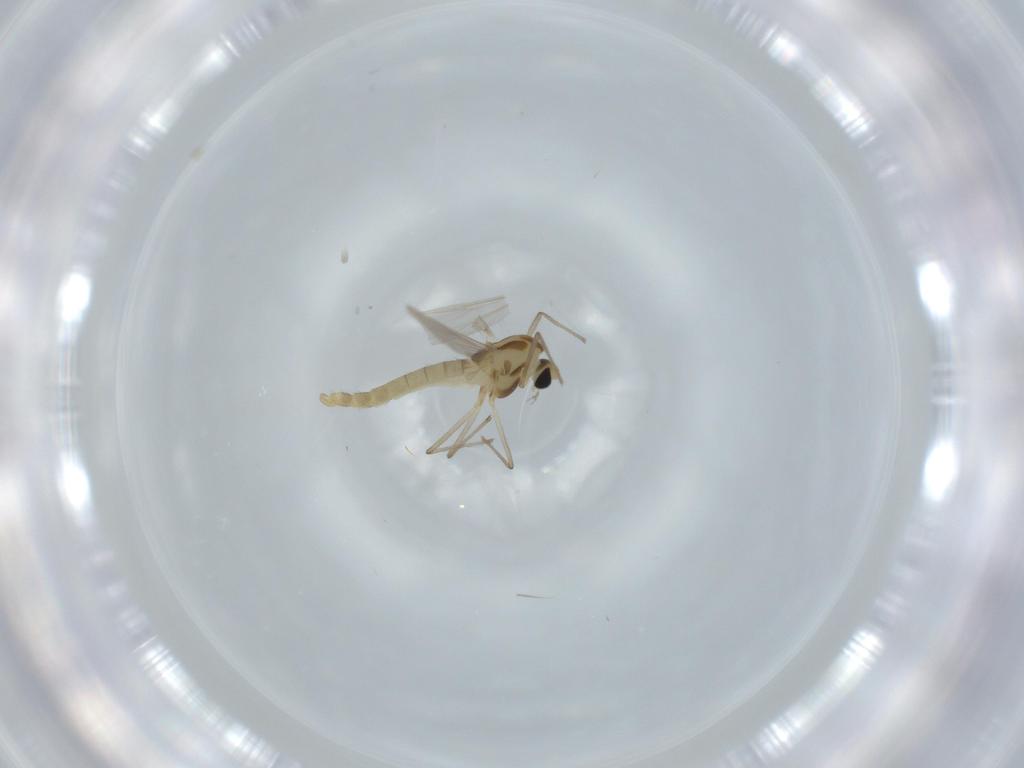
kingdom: Animalia
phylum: Arthropoda
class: Insecta
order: Diptera
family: Chironomidae
